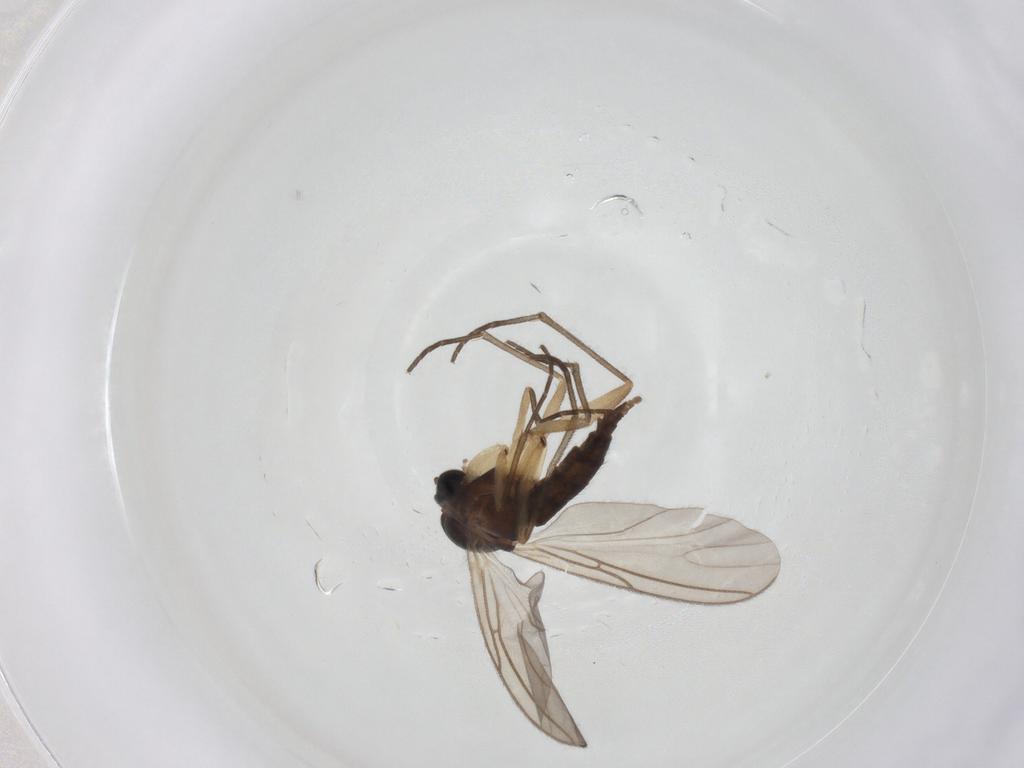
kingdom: Animalia
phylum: Arthropoda
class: Insecta
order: Diptera
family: Sciaridae
